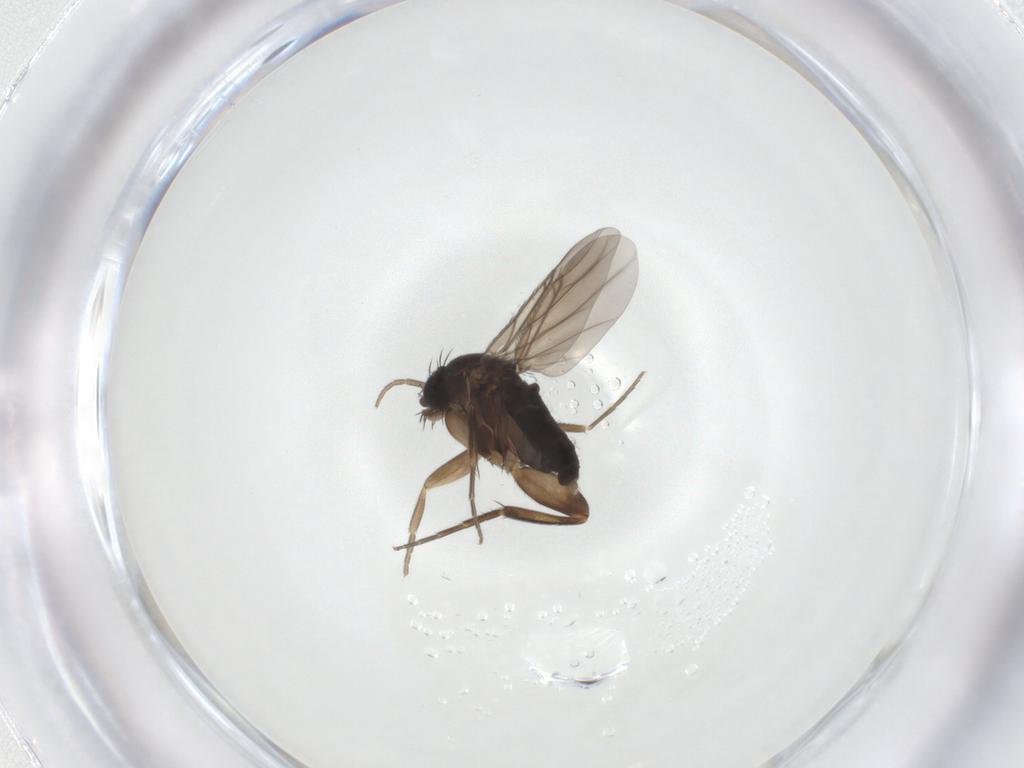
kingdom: Animalia
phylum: Arthropoda
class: Insecta
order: Diptera
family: Phoridae
